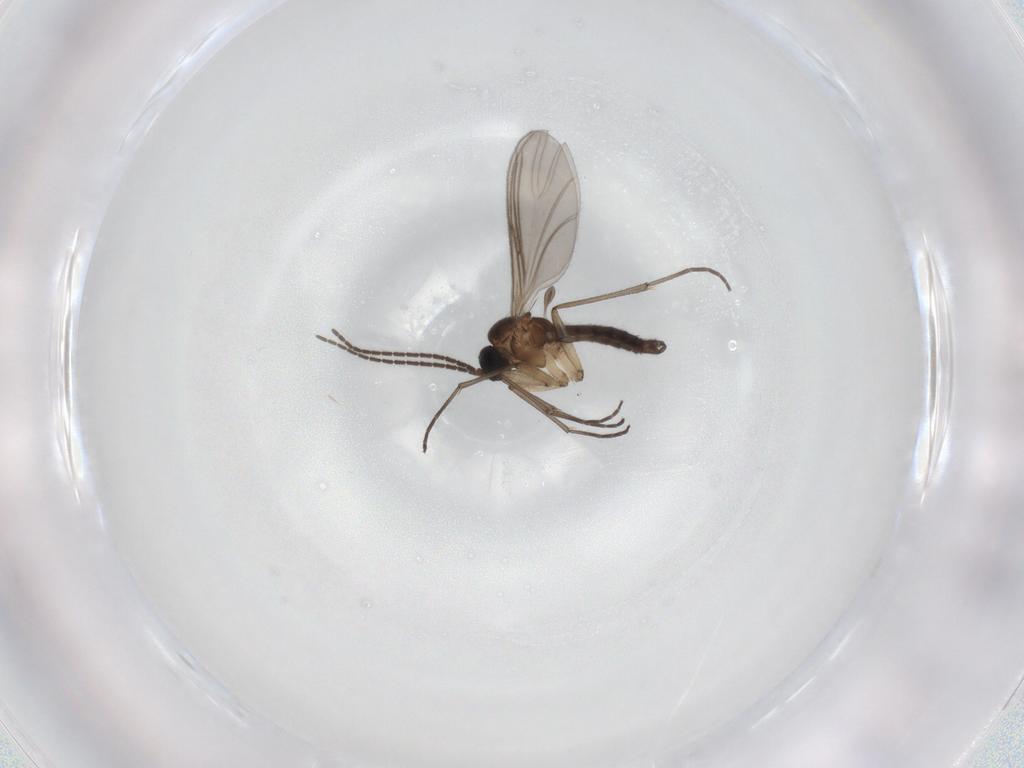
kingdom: Animalia
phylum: Arthropoda
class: Insecta
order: Diptera
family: Sciaridae
